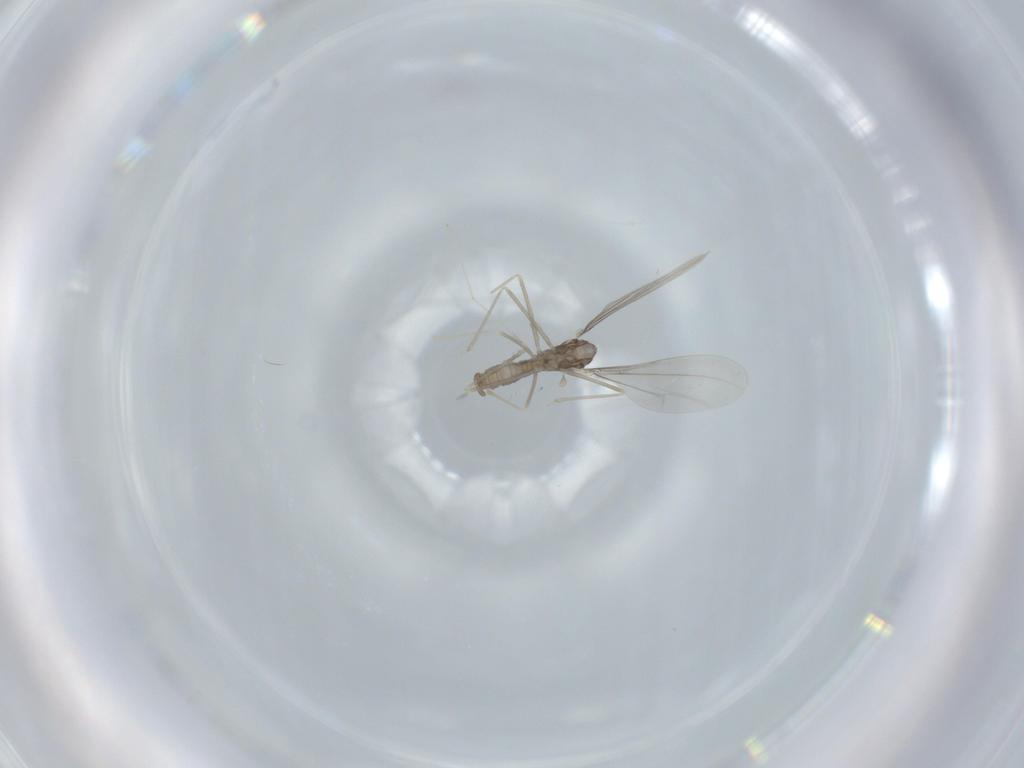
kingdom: Animalia
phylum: Arthropoda
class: Insecta
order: Diptera
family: Cecidomyiidae
